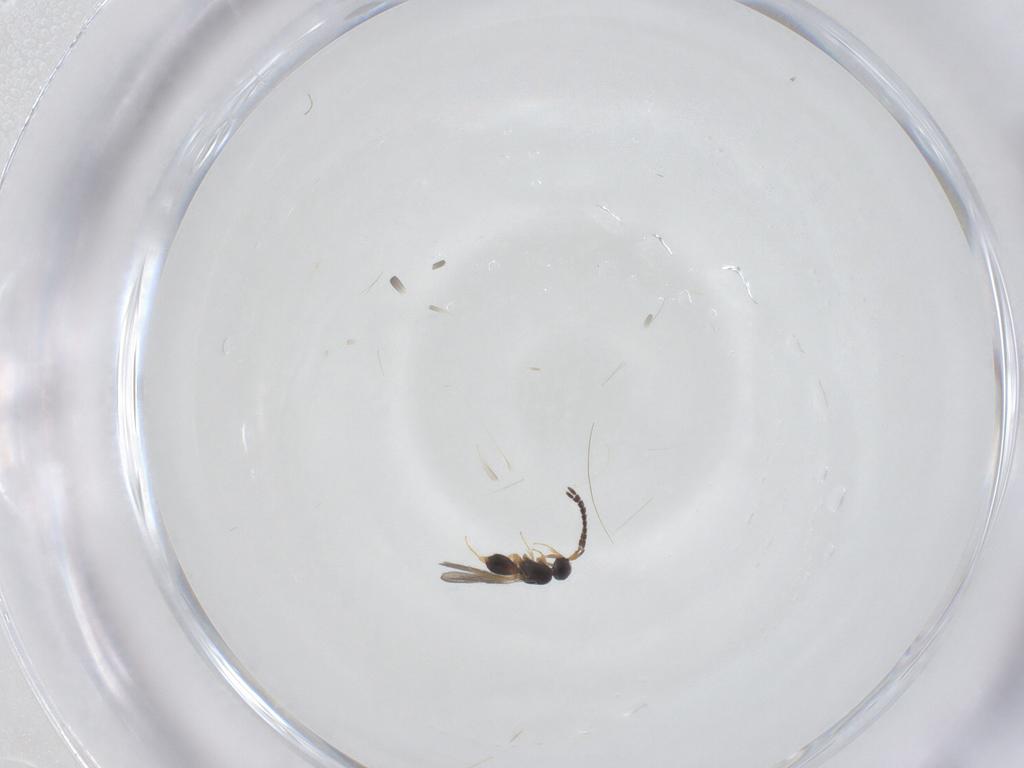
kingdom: Animalia
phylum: Arthropoda
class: Insecta
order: Hymenoptera
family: Ceraphronidae
